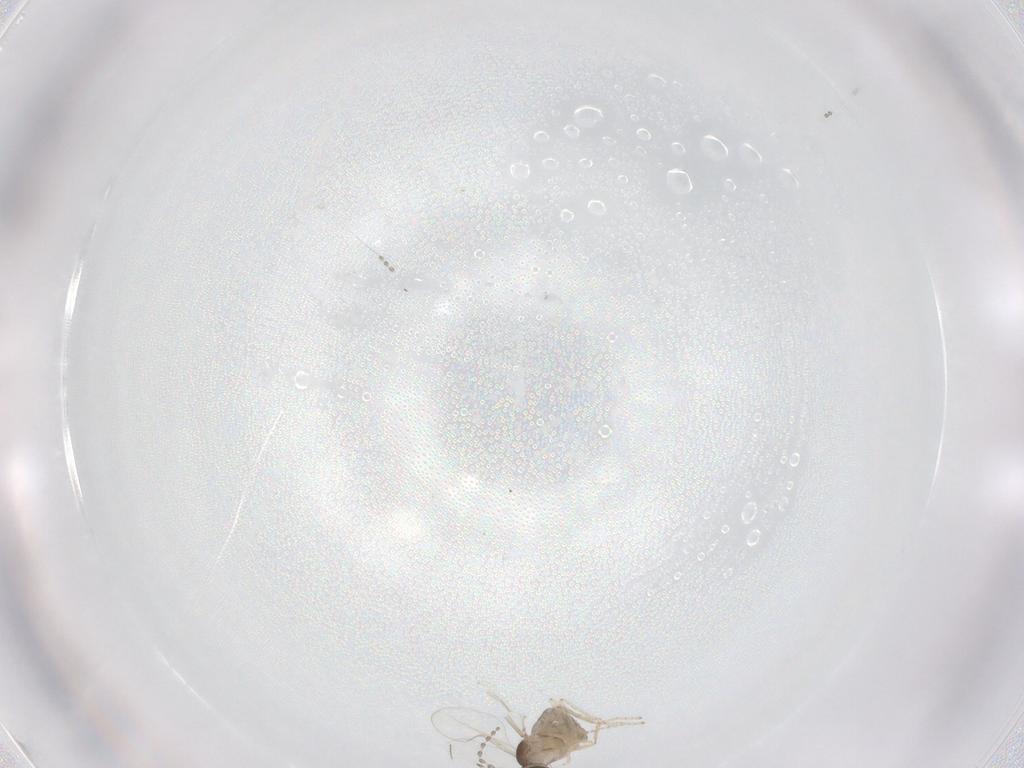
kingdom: Animalia
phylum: Arthropoda
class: Insecta
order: Diptera
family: Cecidomyiidae
